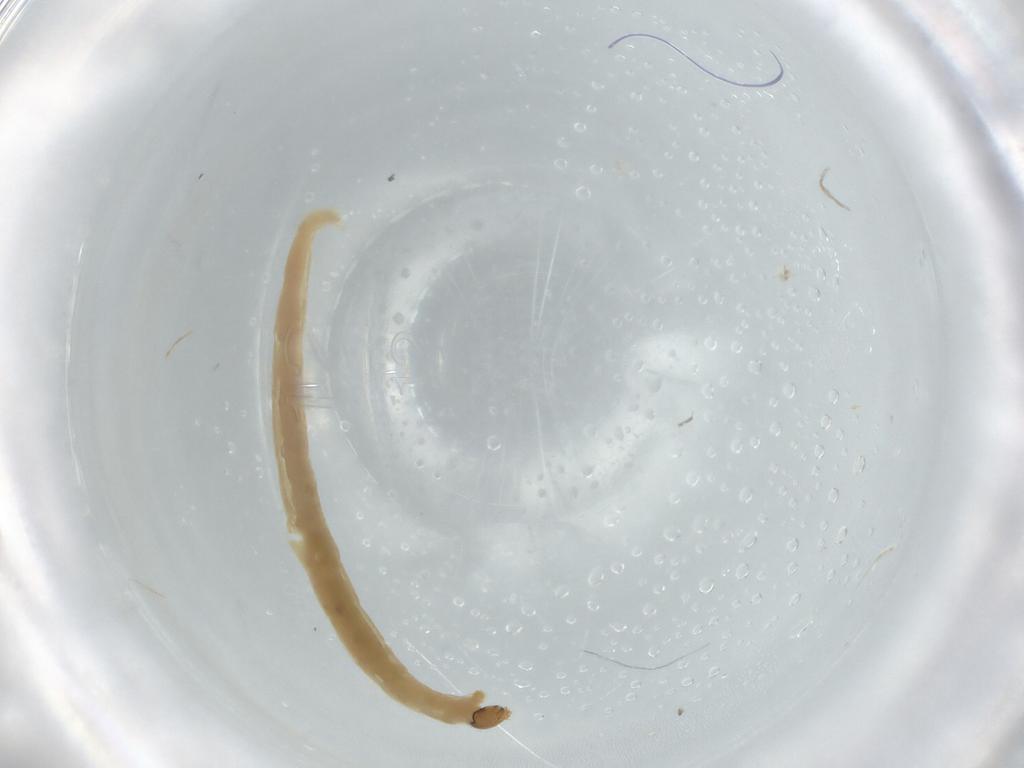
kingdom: Animalia
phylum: Arthropoda
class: Insecta
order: Diptera
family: Chironomidae
